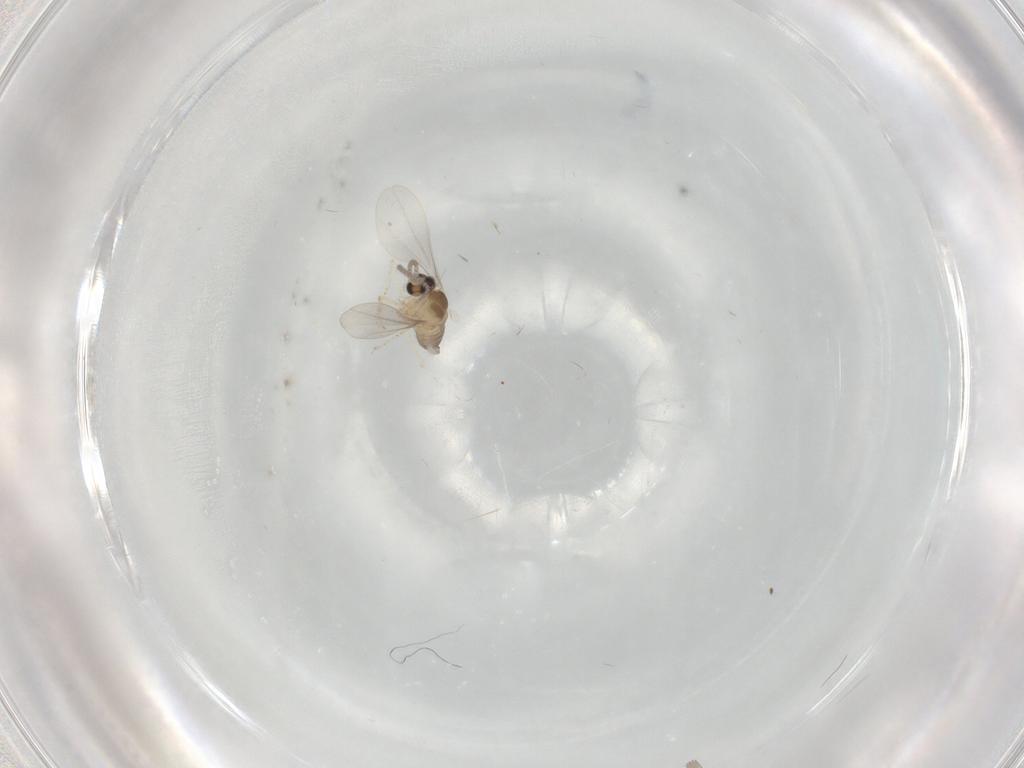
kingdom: Animalia
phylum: Arthropoda
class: Insecta
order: Diptera
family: Cecidomyiidae
